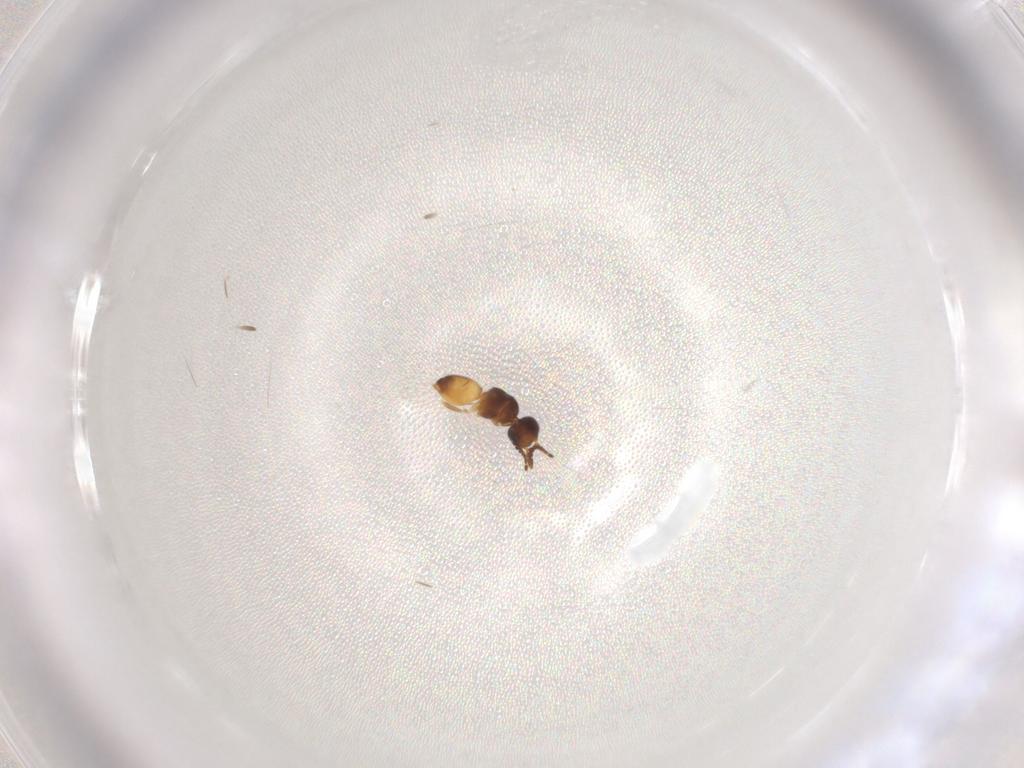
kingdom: Animalia
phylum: Arthropoda
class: Insecta
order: Hymenoptera
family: Scelionidae
